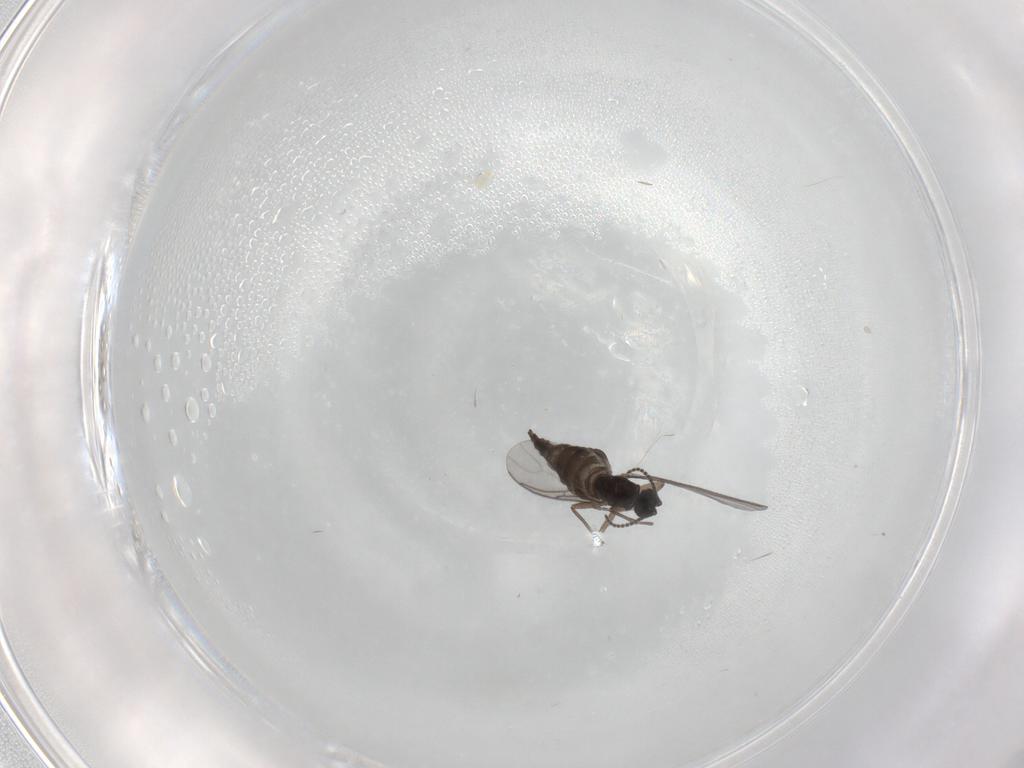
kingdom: Animalia
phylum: Arthropoda
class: Insecta
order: Diptera
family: Sciaridae
